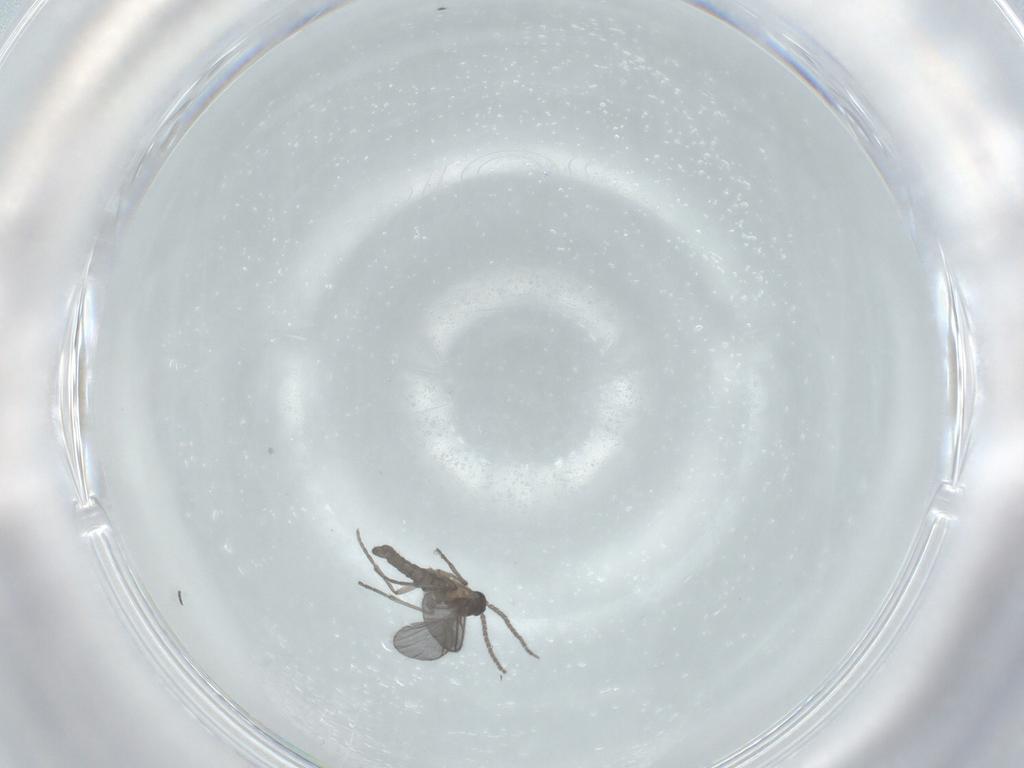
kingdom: Animalia
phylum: Arthropoda
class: Insecta
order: Diptera
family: Sciaridae
